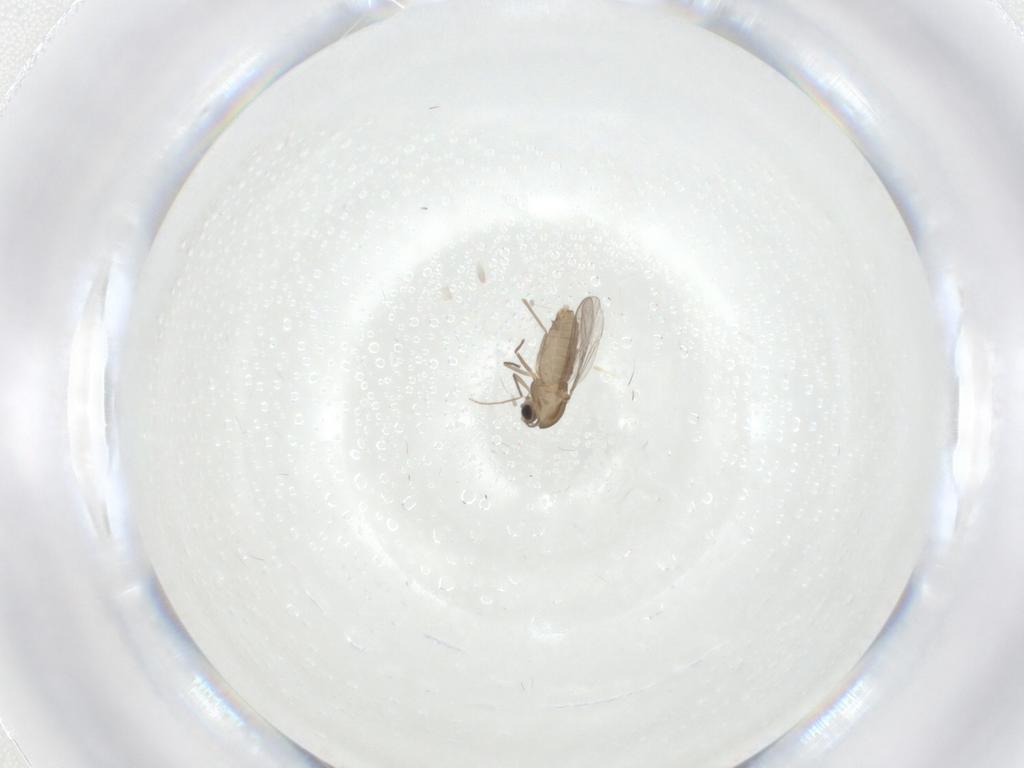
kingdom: Animalia
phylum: Arthropoda
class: Insecta
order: Diptera
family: Chironomidae
